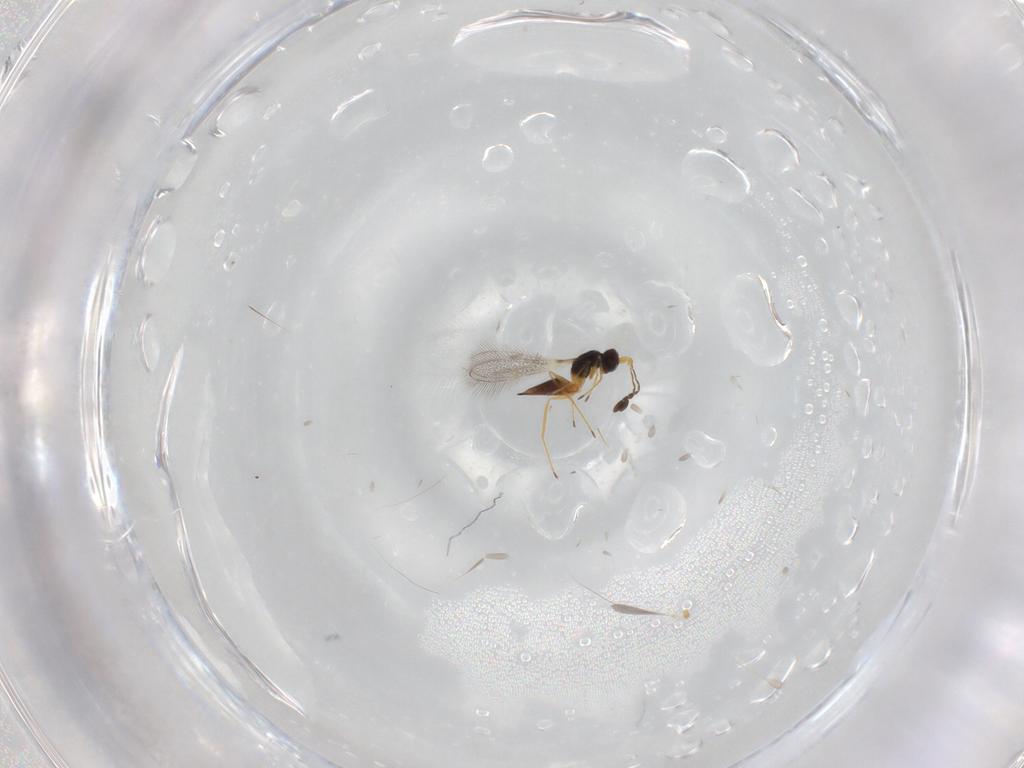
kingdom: Animalia
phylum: Arthropoda
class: Insecta
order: Hymenoptera
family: Mymaridae
